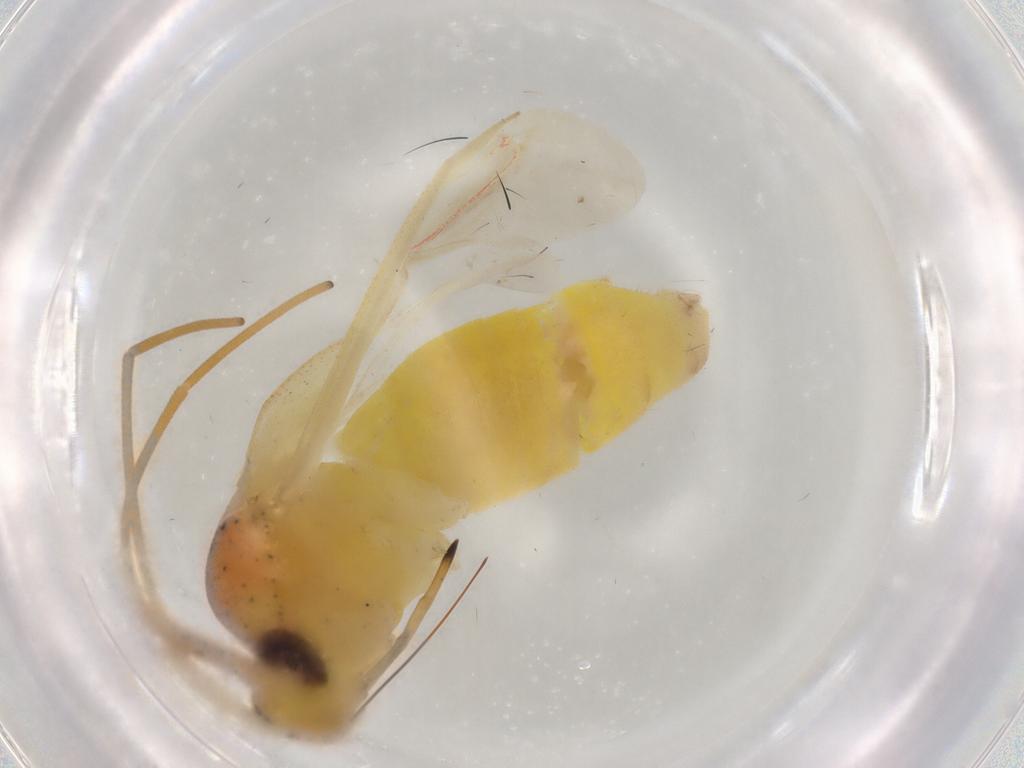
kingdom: Animalia
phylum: Arthropoda
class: Insecta
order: Hemiptera
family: Miridae
